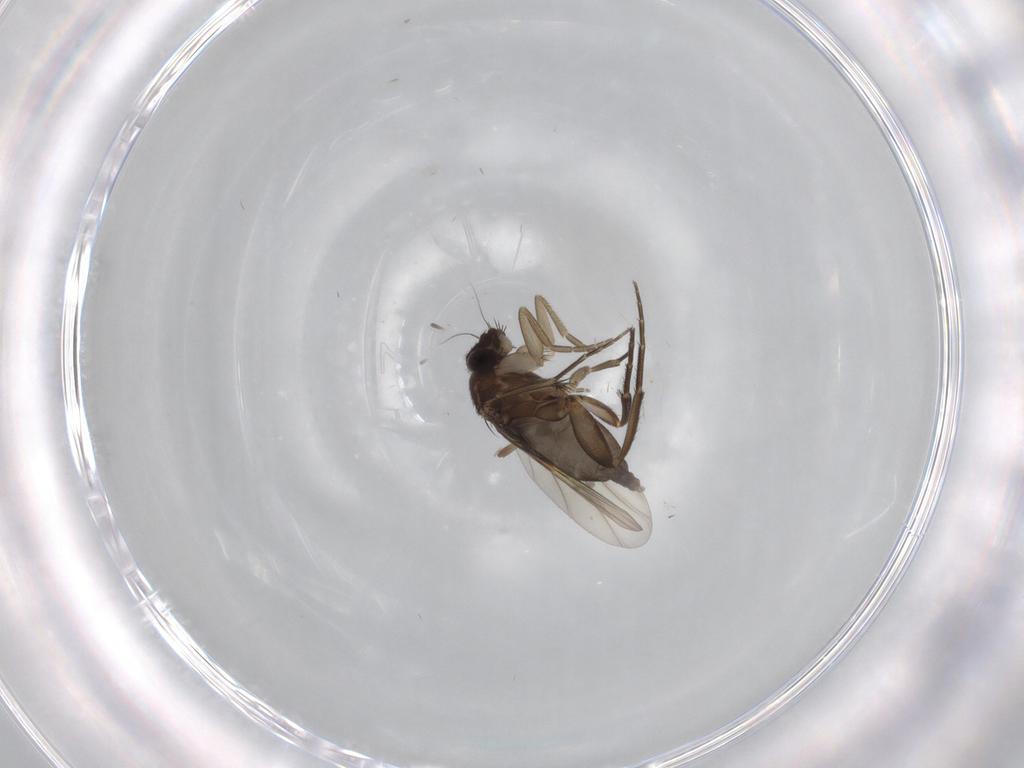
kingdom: Animalia
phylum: Arthropoda
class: Insecta
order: Diptera
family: Phoridae
